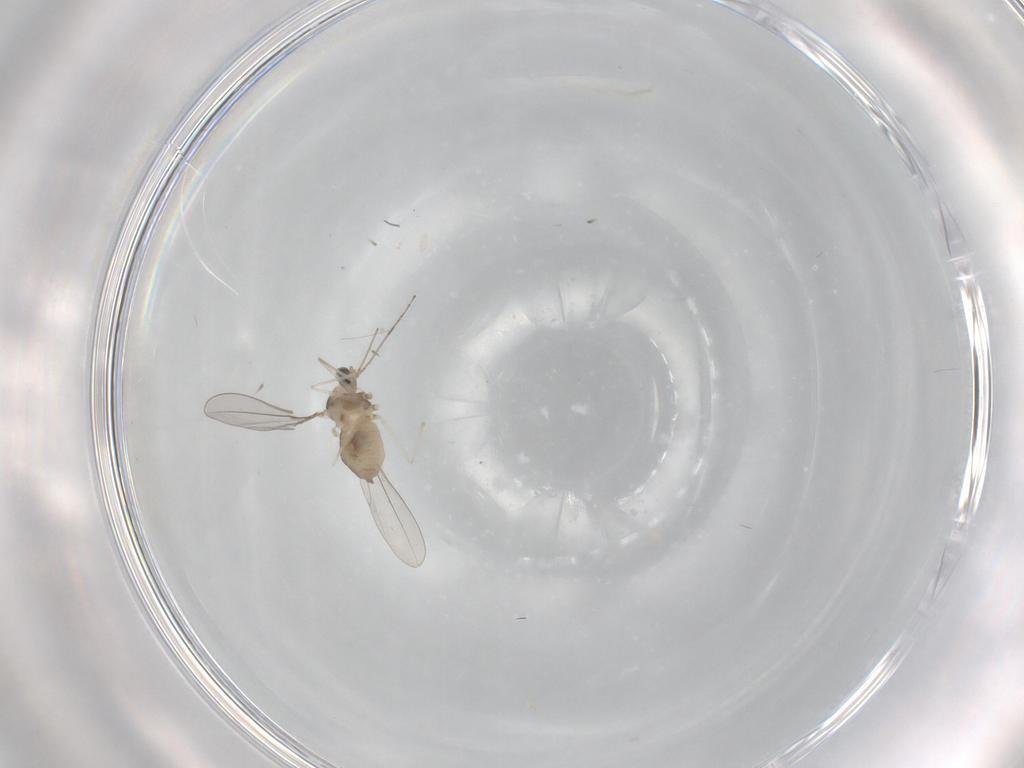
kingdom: Animalia
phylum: Arthropoda
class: Insecta
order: Diptera
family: Cecidomyiidae
